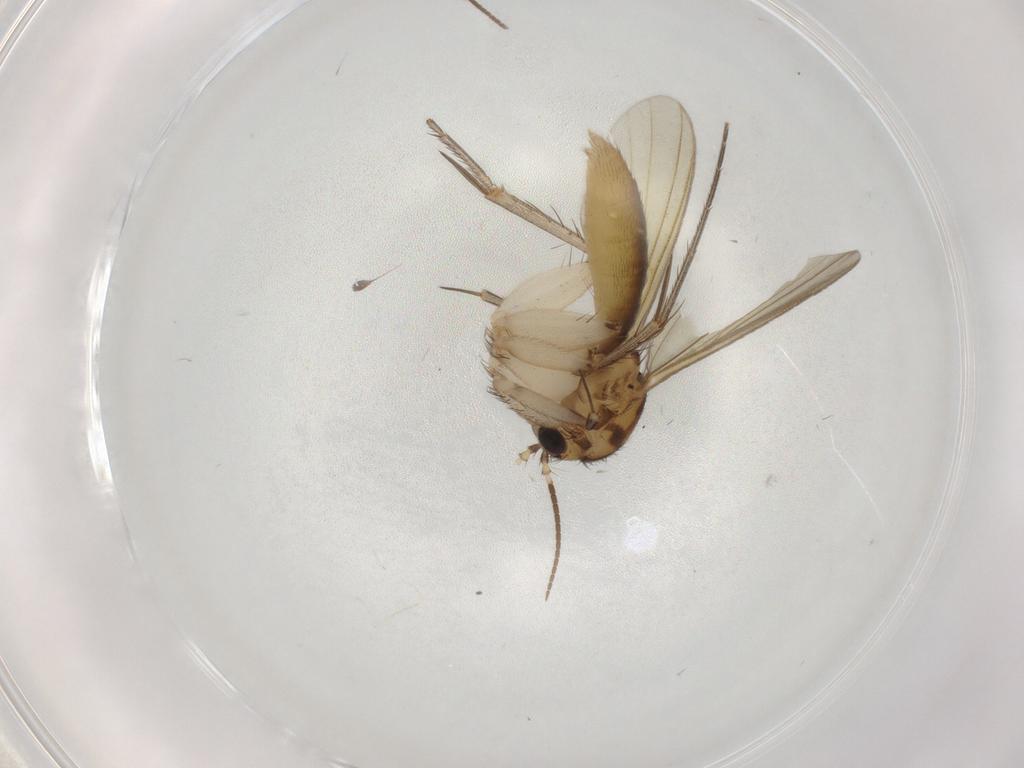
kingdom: Animalia
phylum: Arthropoda
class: Insecta
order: Diptera
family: Mycetophilidae
